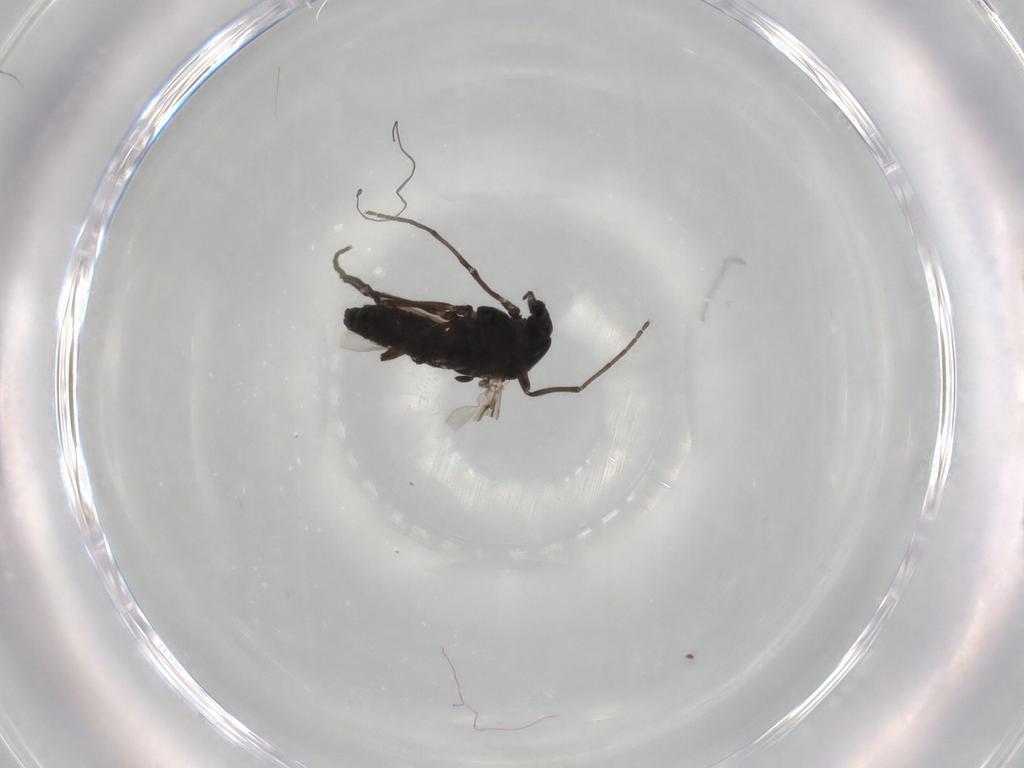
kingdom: Animalia
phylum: Arthropoda
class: Insecta
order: Diptera
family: Chironomidae
